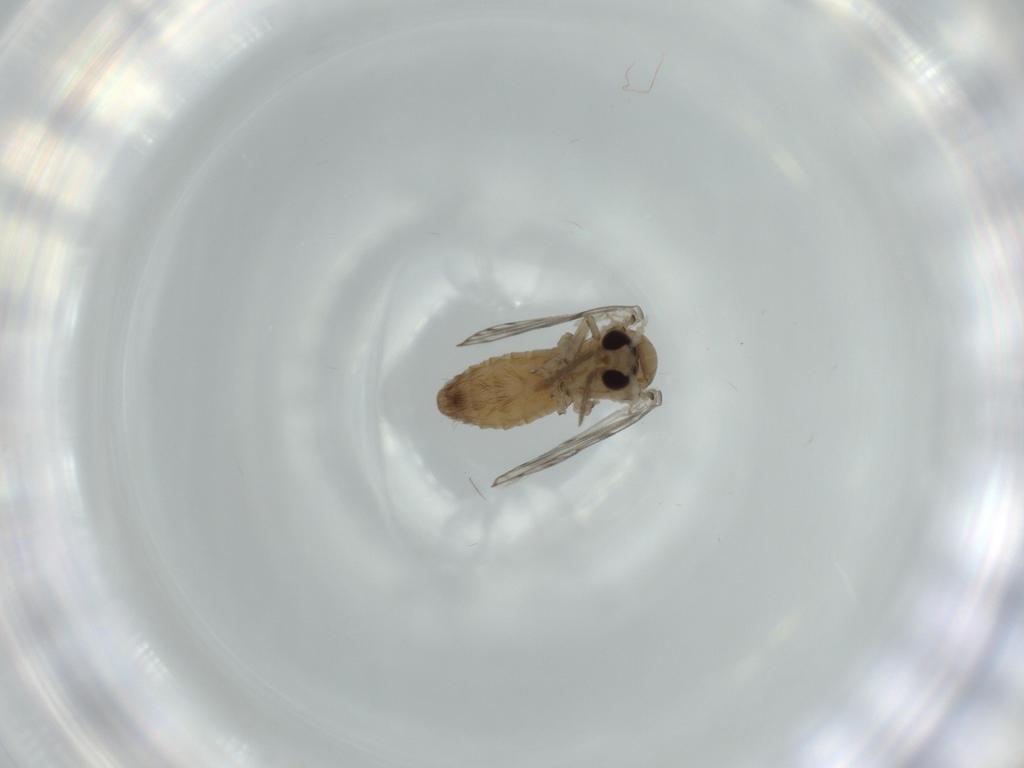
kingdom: Animalia
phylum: Arthropoda
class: Insecta
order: Diptera
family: Psychodidae
